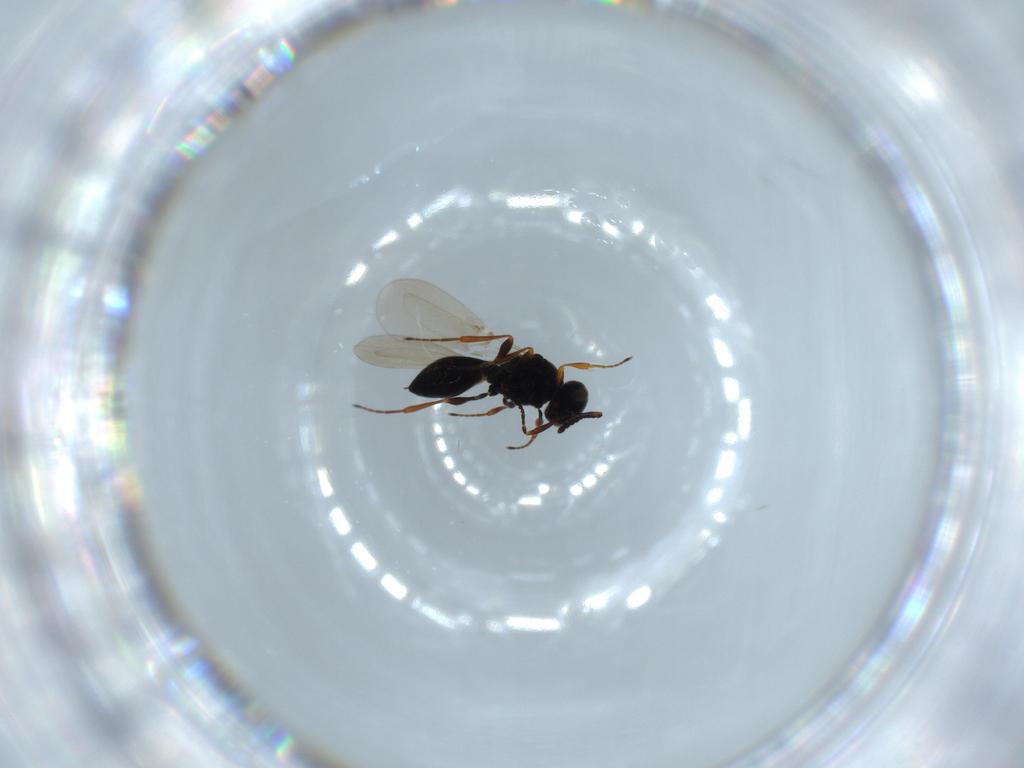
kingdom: Animalia
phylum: Arthropoda
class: Insecta
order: Hymenoptera
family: Platygastridae
